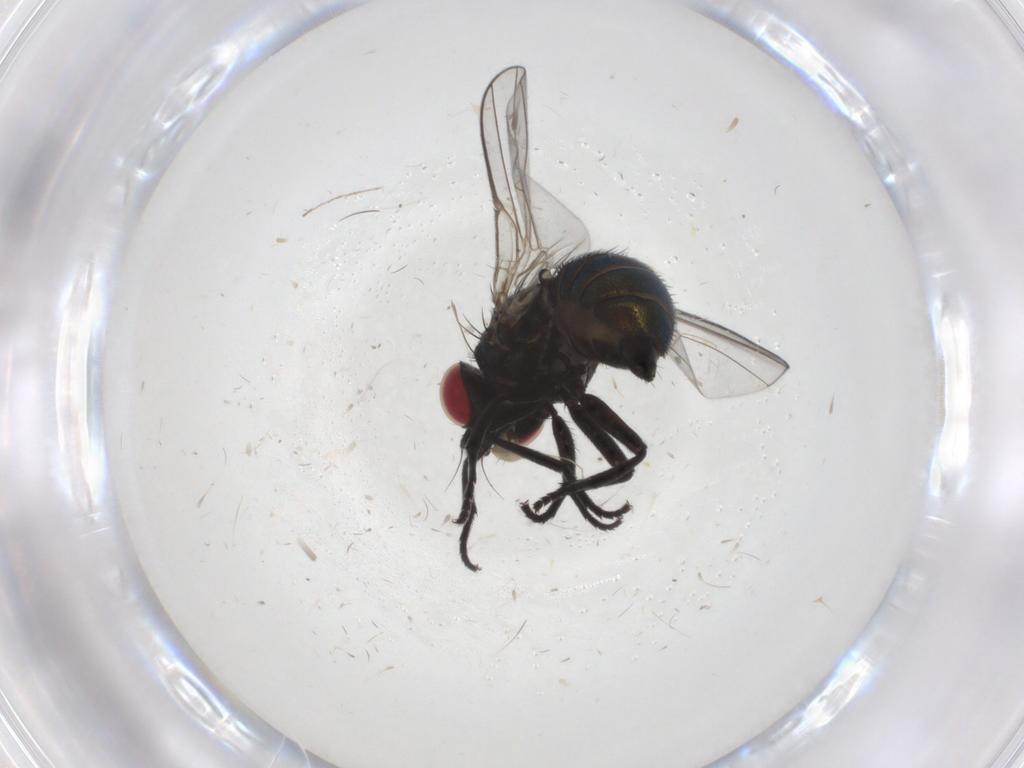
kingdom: Animalia
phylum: Arthropoda
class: Insecta
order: Diptera
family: Agromyzidae
